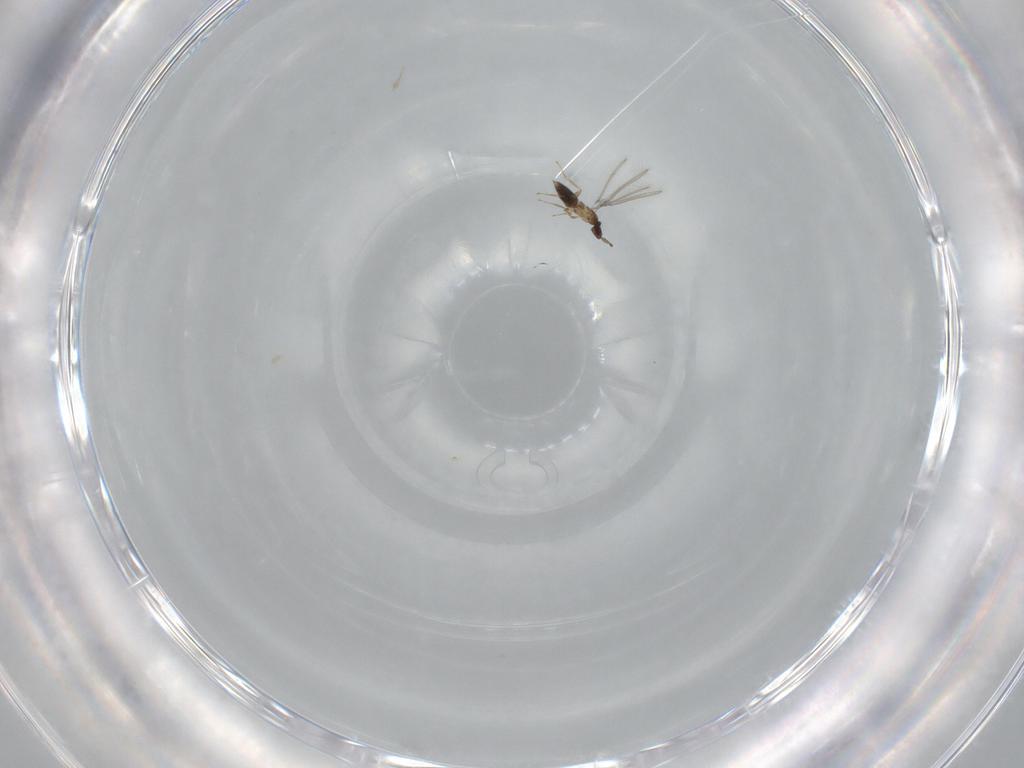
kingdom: Animalia
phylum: Arthropoda
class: Insecta
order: Hymenoptera
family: Mymaridae
